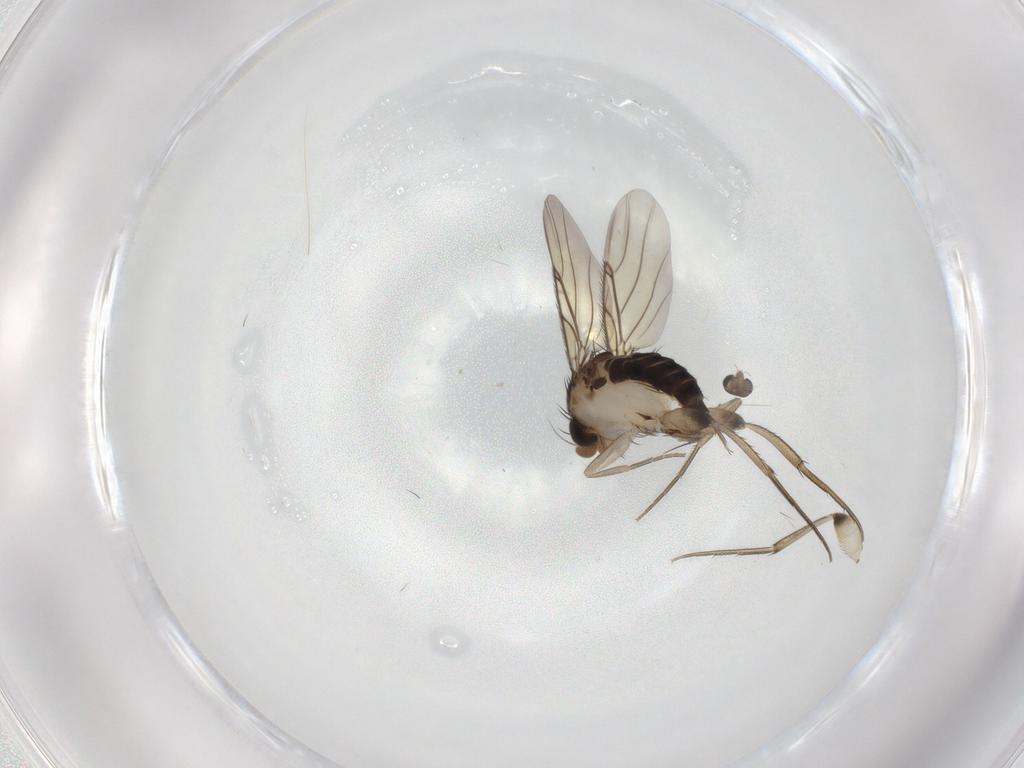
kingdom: Animalia
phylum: Arthropoda
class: Insecta
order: Diptera
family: Phoridae
